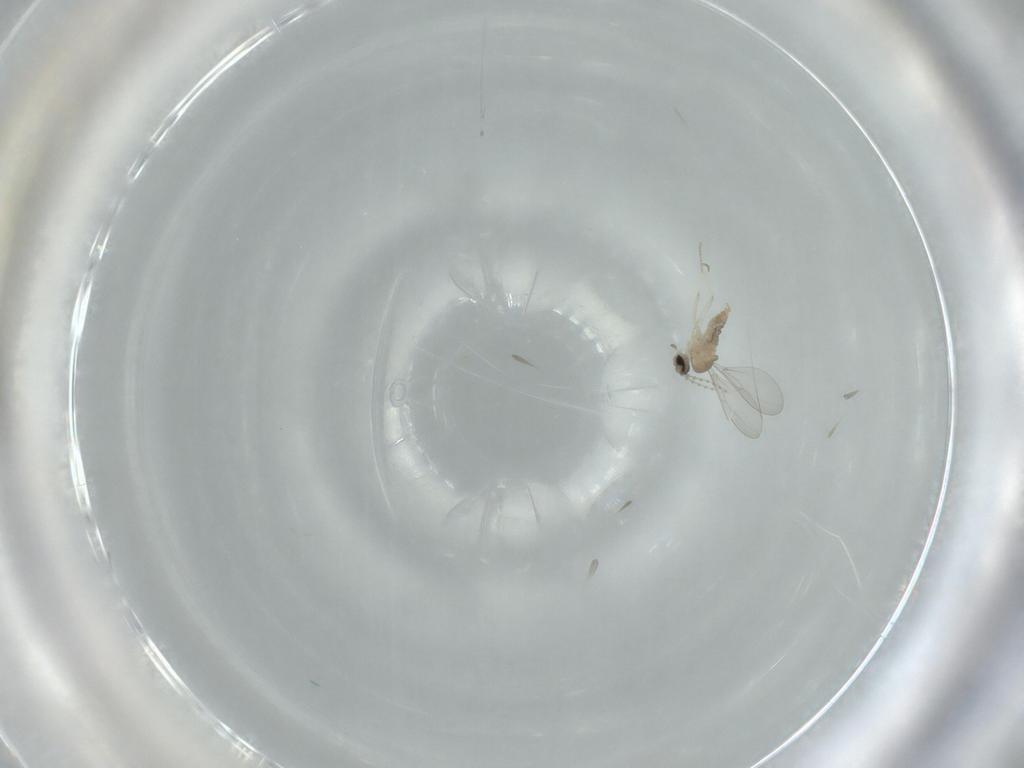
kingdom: Animalia
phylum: Arthropoda
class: Insecta
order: Diptera
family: Cecidomyiidae
